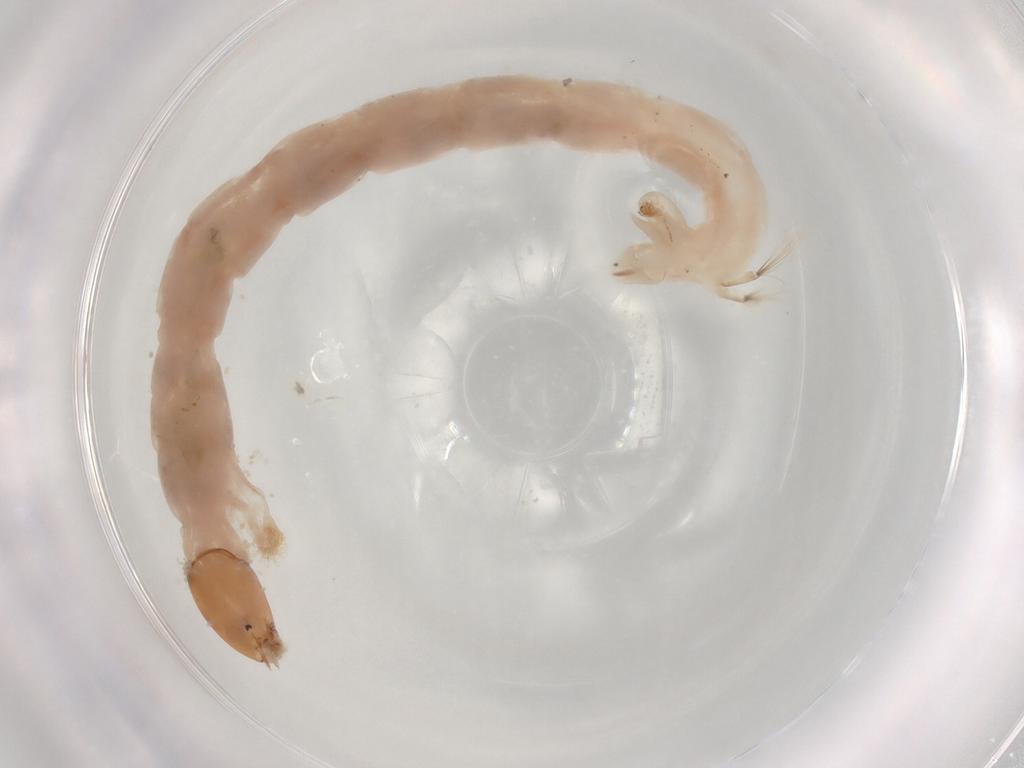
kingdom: Animalia
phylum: Arthropoda
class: Insecta
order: Diptera
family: Chironomidae
